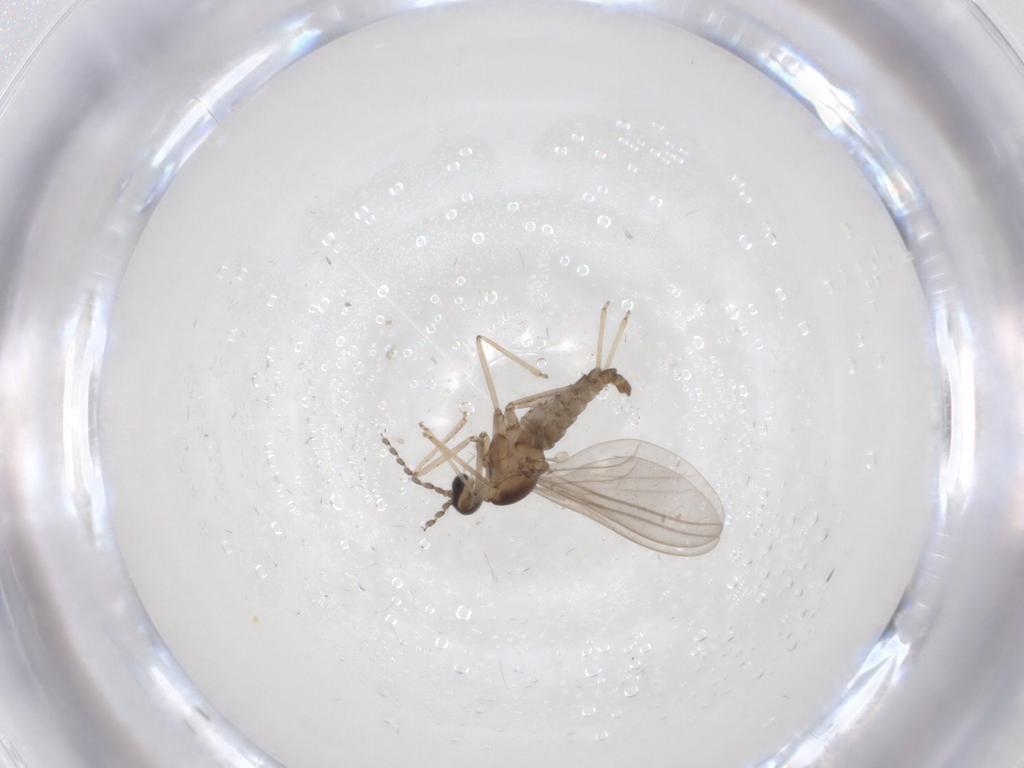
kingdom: Animalia
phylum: Arthropoda
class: Insecta
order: Diptera
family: Cecidomyiidae
